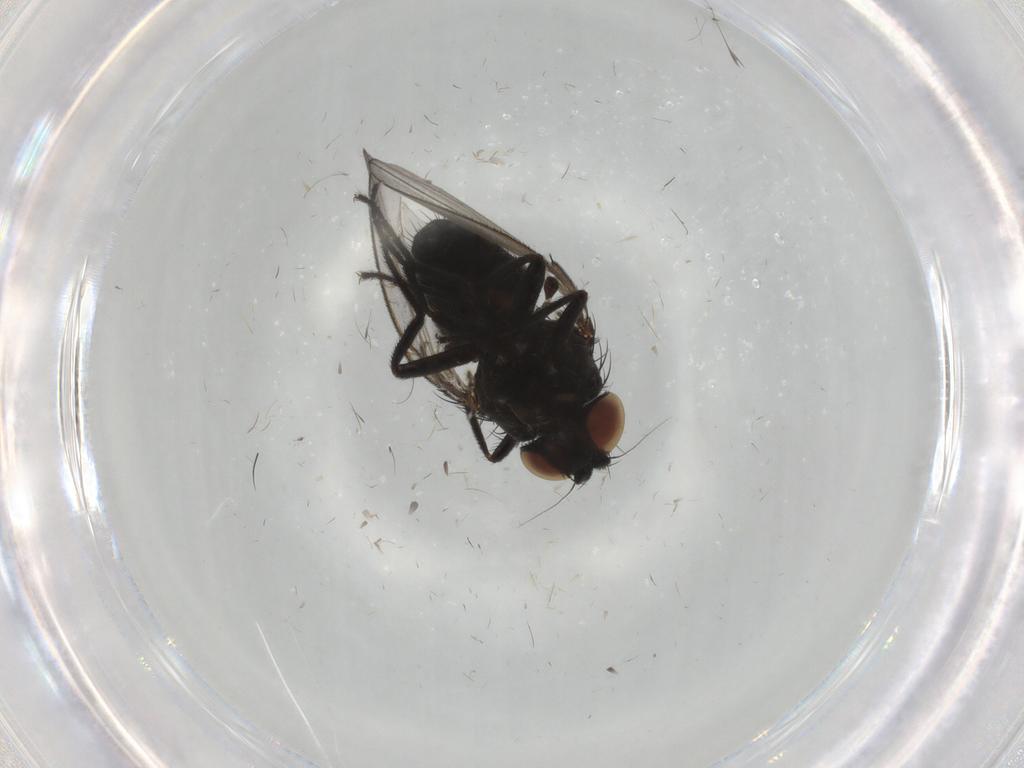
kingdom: Animalia
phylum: Arthropoda
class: Insecta
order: Diptera
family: Milichiidae
